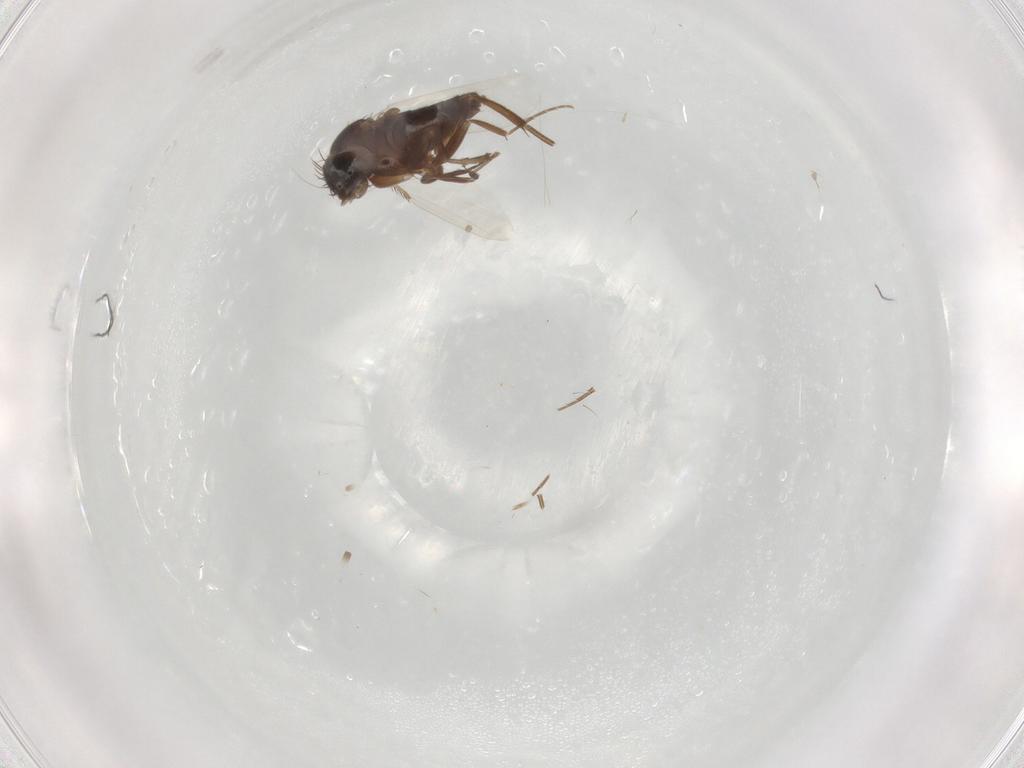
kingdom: Animalia
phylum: Arthropoda
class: Insecta
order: Diptera
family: Phoridae
